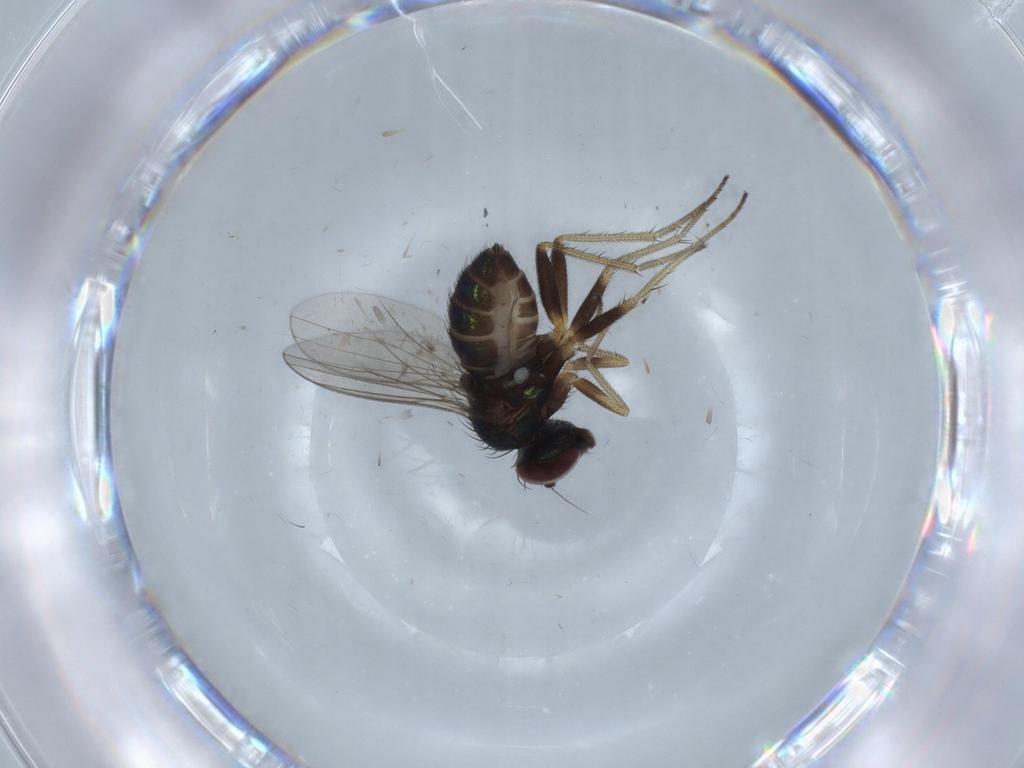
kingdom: Animalia
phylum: Arthropoda
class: Insecta
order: Diptera
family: Cecidomyiidae
